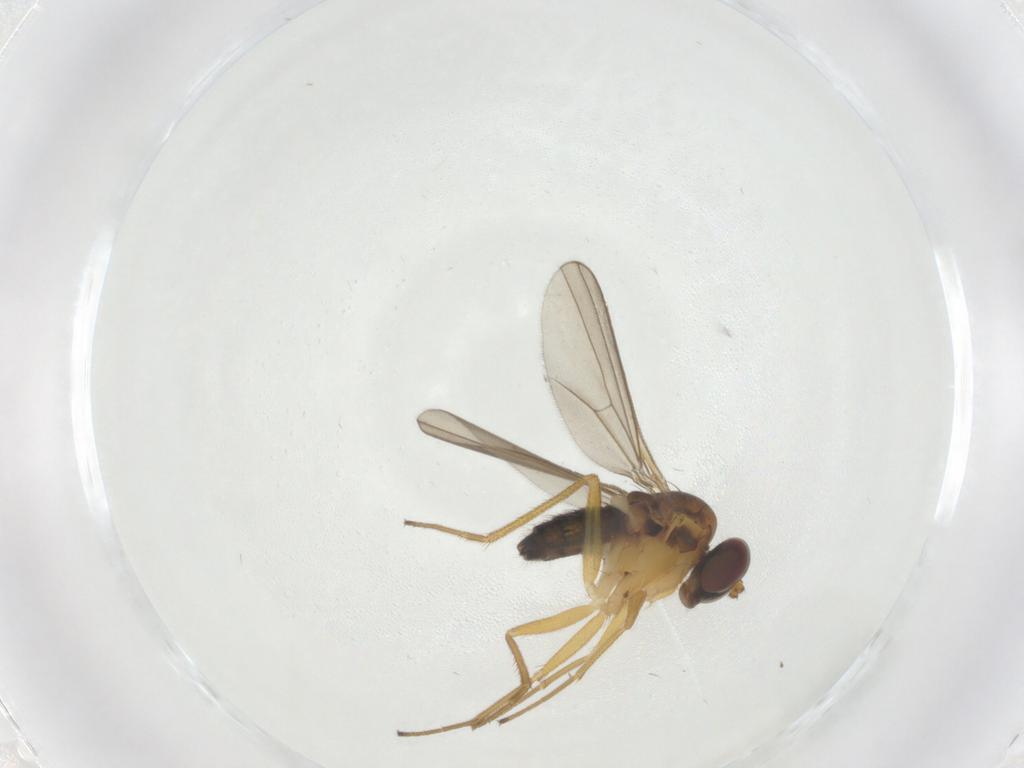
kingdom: Animalia
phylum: Arthropoda
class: Insecta
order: Diptera
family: Dolichopodidae
